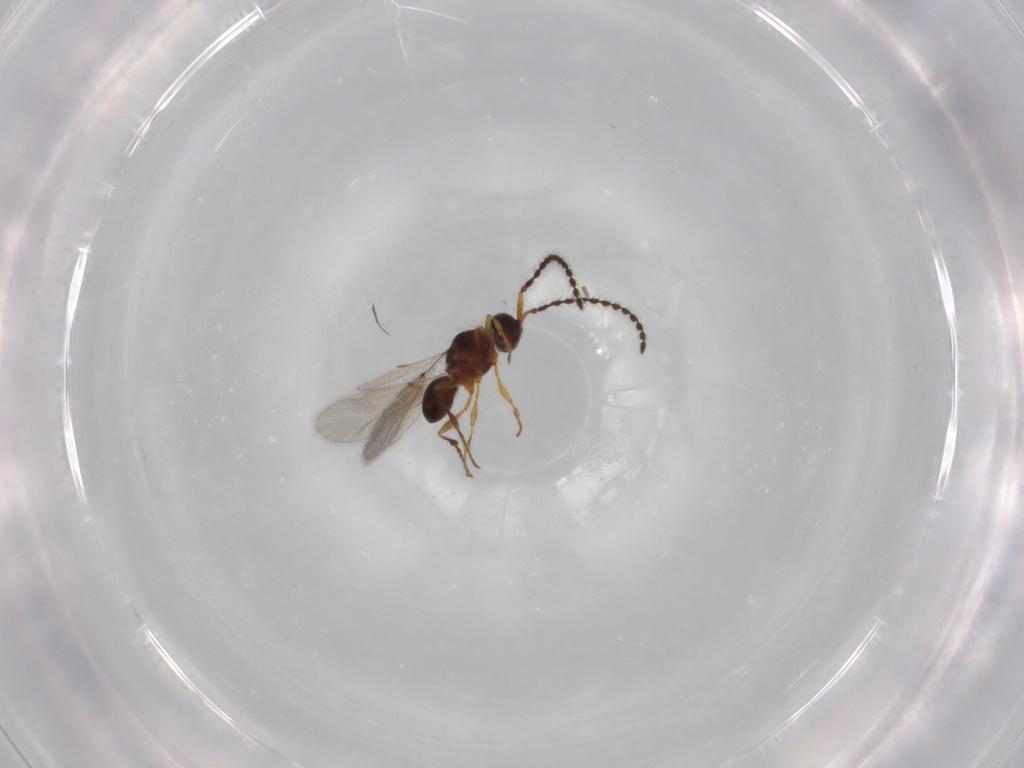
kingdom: Animalia
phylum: Arthropoda
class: Insecta
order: Hymenoptera
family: Diapriidae
